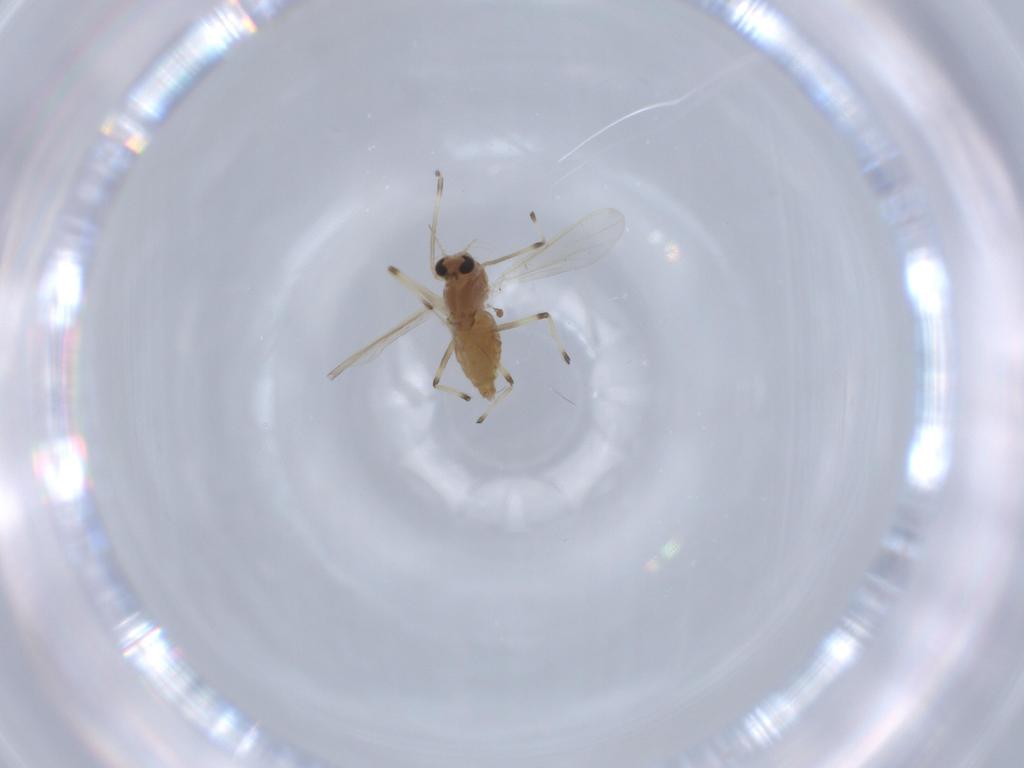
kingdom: Animalia
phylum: Arthropoda
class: Insecta
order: Diptera
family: Chironomidae
